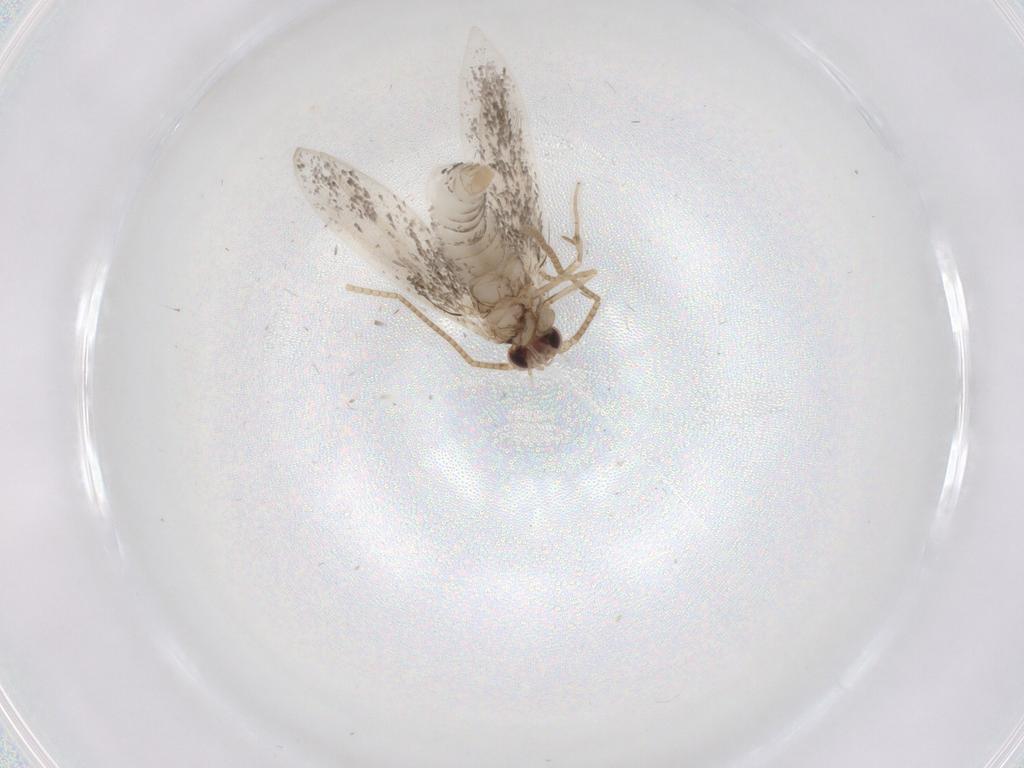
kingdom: Animalia
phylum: Arthropoda
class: Insecta
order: Lepidoptera
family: Tineidae
